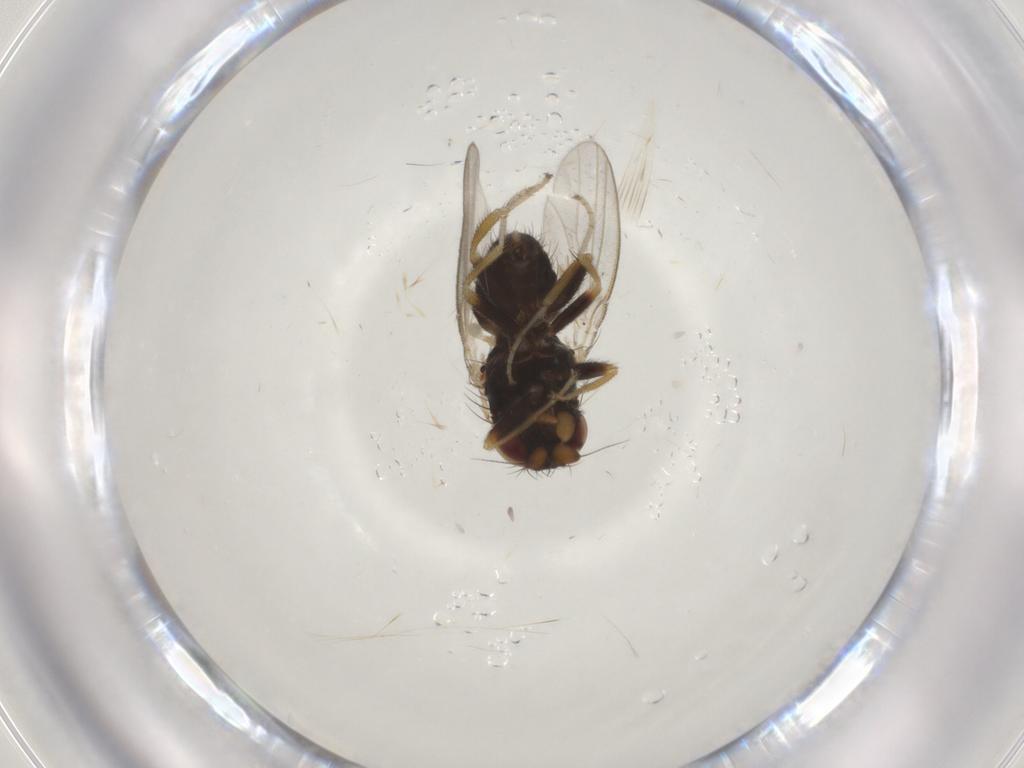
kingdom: Animalia
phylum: Arthropoda
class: Insecta
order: Diptera
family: Milichiidae
